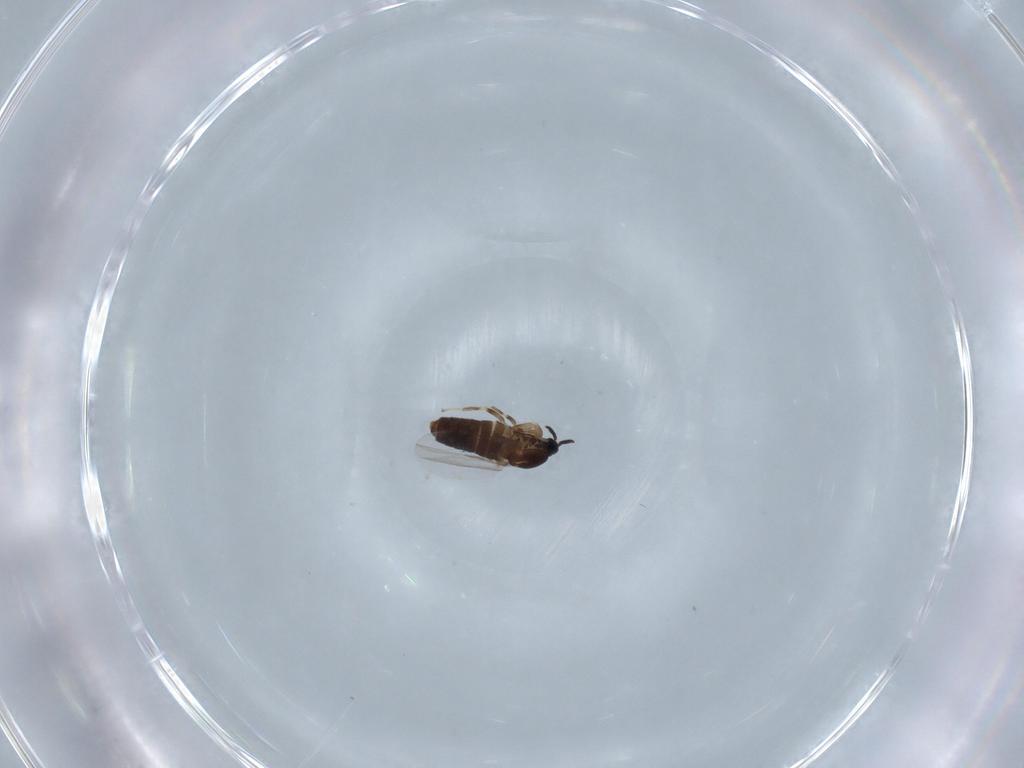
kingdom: Animalia
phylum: Arthropoda
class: Insecta
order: Diptera
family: Scatopsidae
